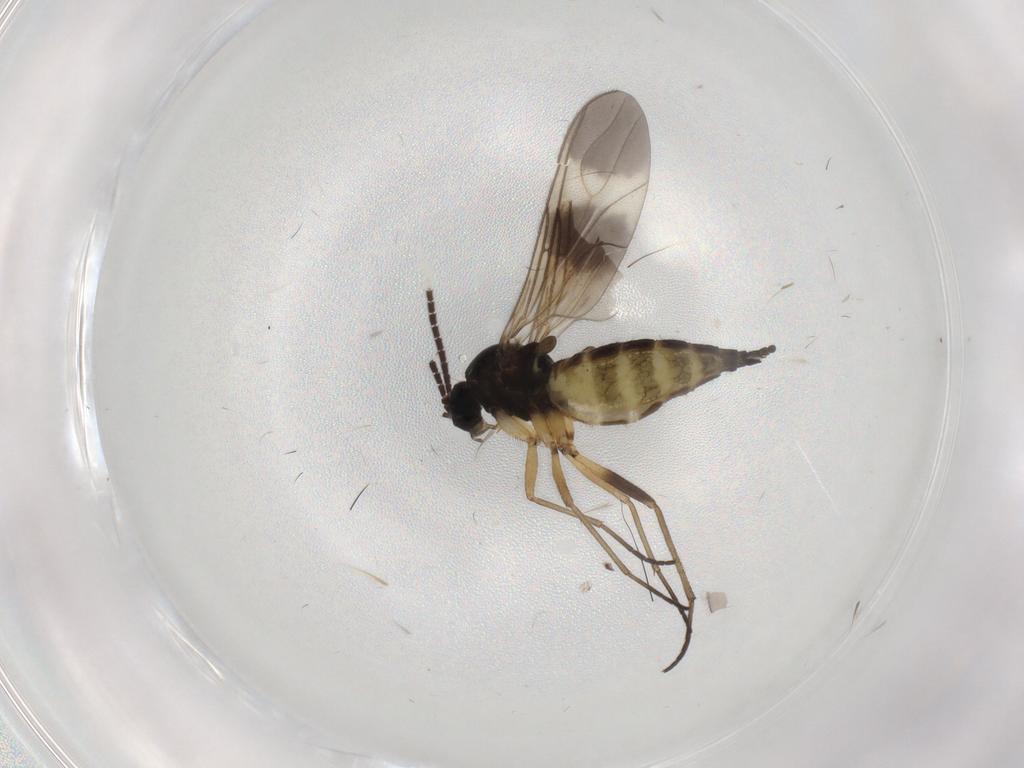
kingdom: Animalia
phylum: Arthropoda
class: Insecta
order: Diptera
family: Sciaridae
